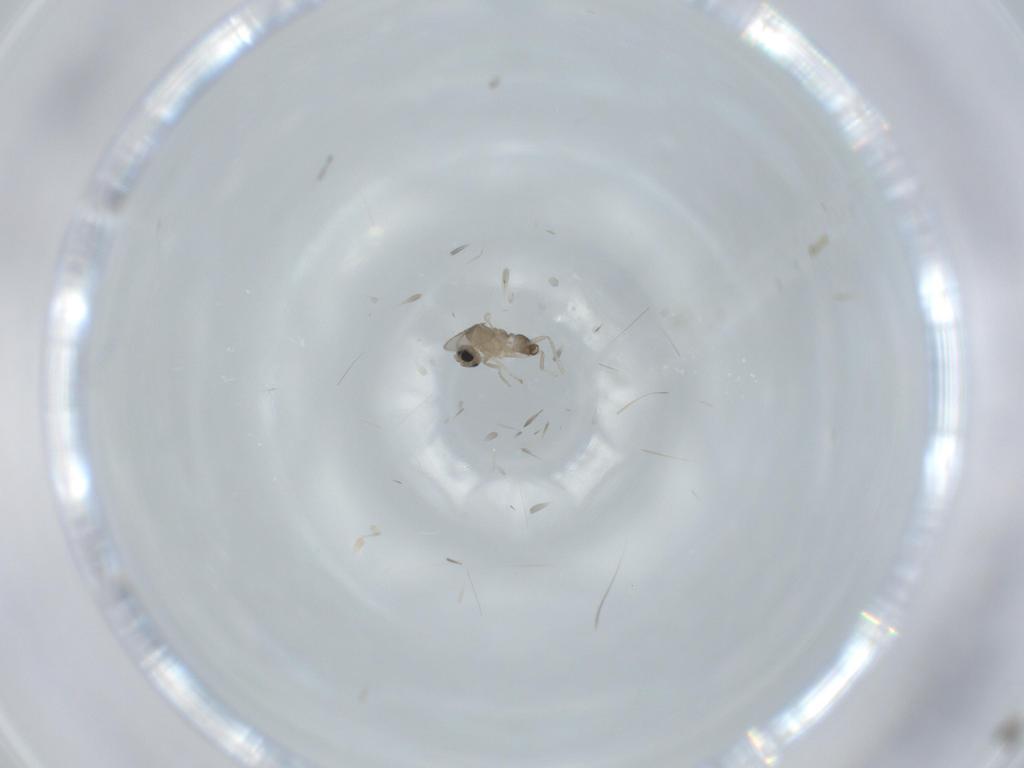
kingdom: Animalia
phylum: Arthropoda
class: Insecta
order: Diptera
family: Cecidomyiidae
